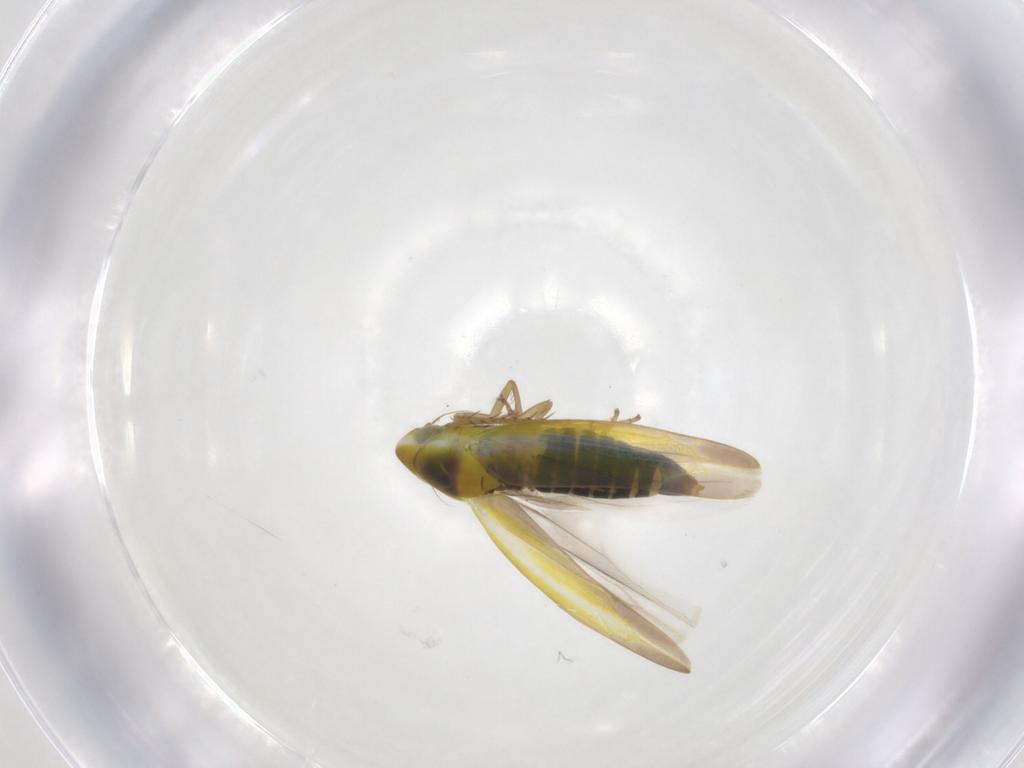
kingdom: Animalia
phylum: Arthropoda
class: Insecta
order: Hemiptera
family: Cicadellidae
